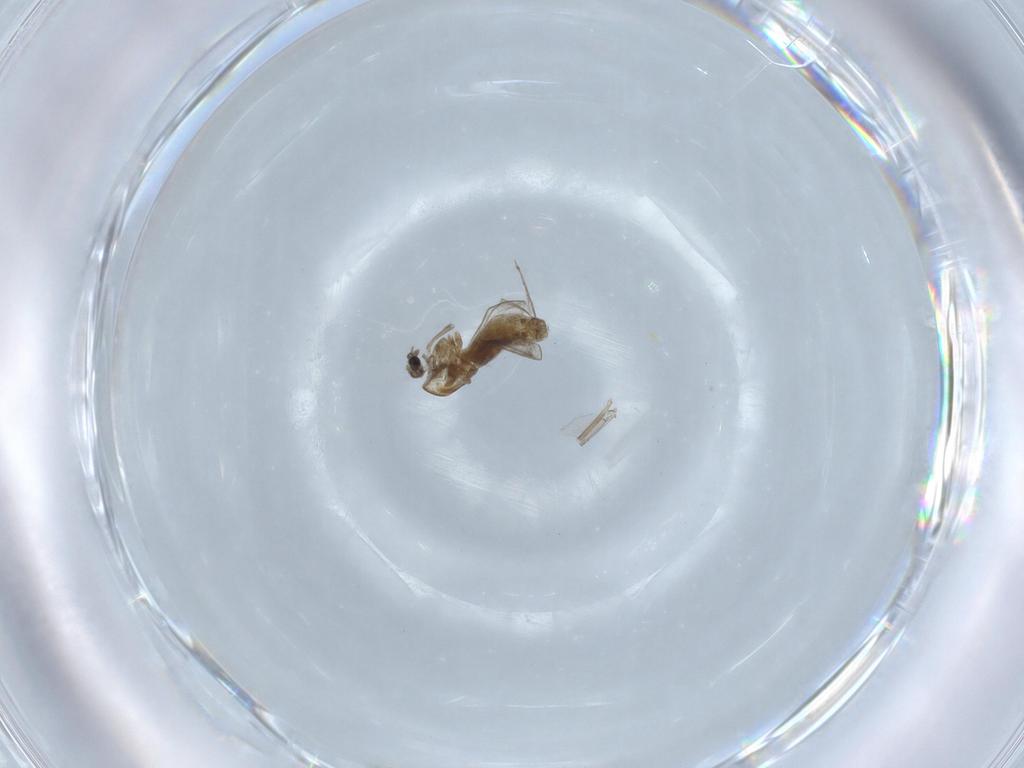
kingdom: Animalia
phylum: Arthropoda
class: Insecta
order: Diptera
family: Chironomidae
